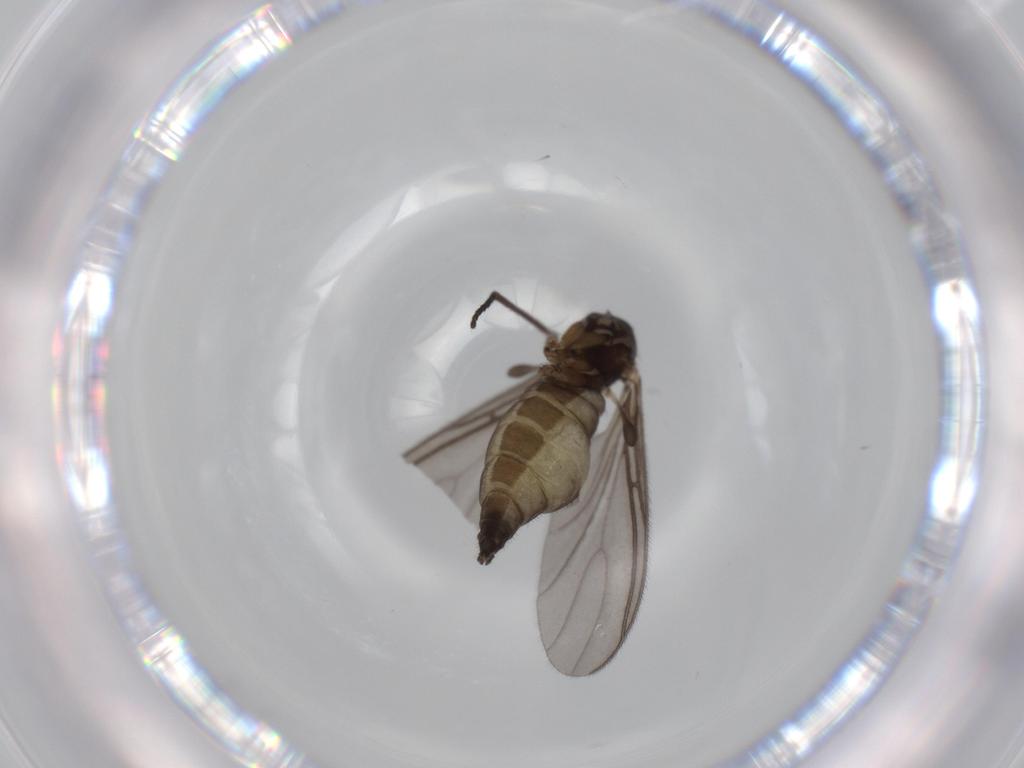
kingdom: Animalia
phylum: Arthropoda
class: Insecta
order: Diptera
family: Sciaridae
